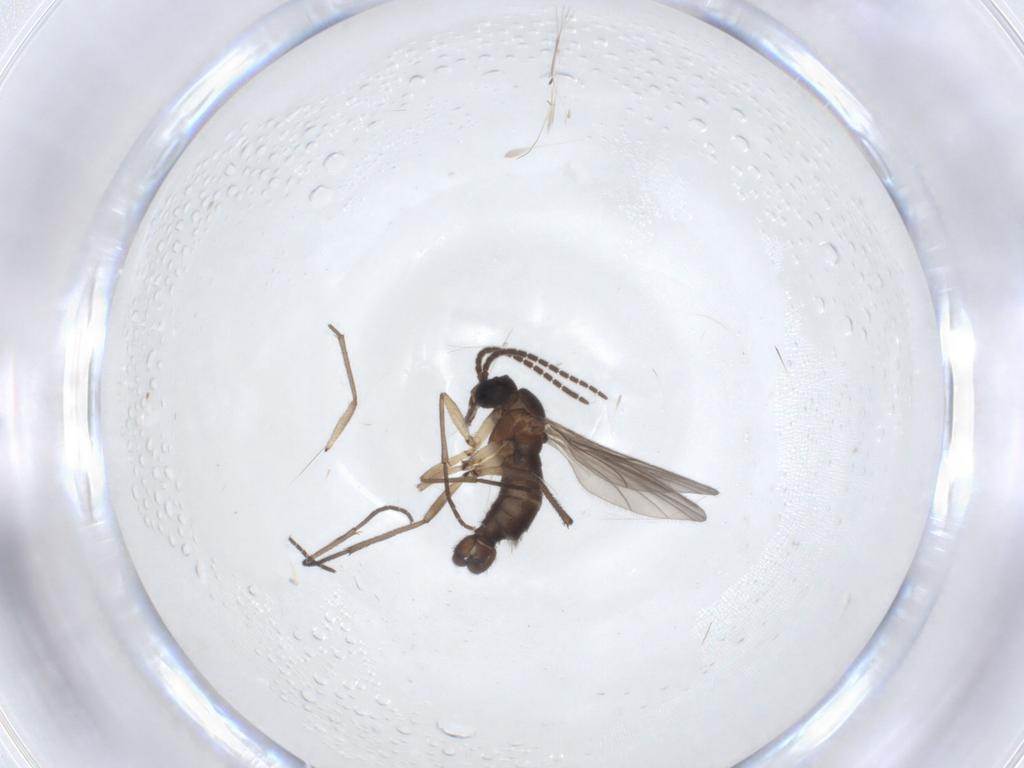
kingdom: Animalia
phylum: Arthropoda
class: Insecta
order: Diptera
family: Sciaridae
